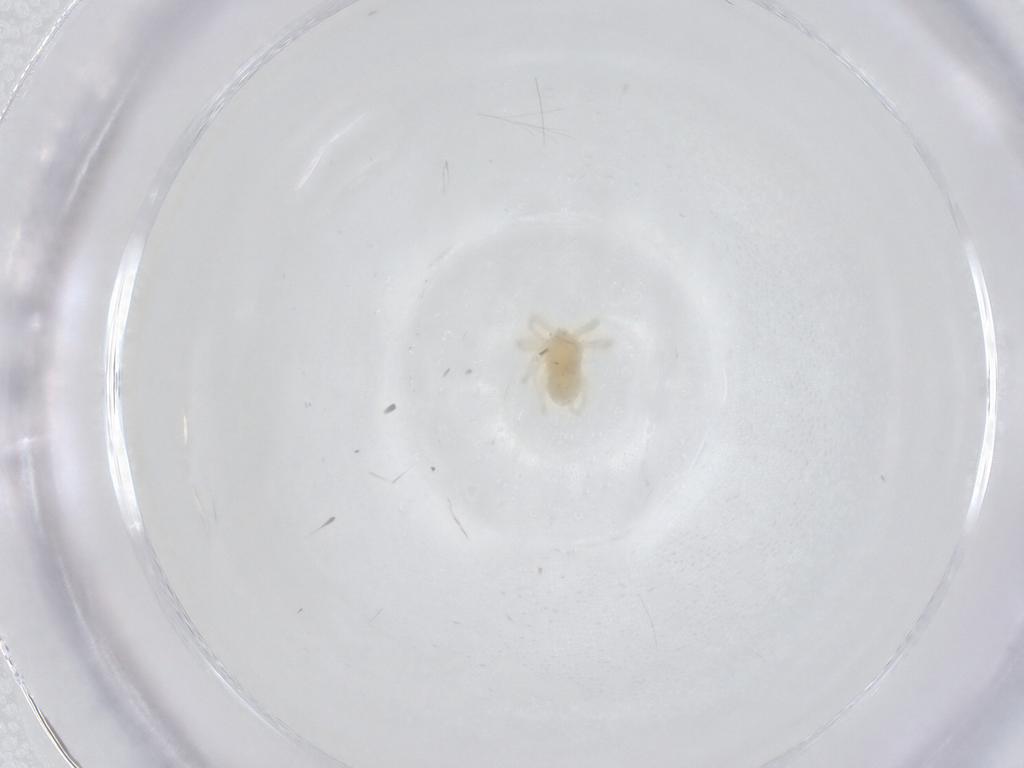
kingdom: Animalia
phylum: Arthropoda
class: Arachnida
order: Trombidiformes
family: Anystidae
